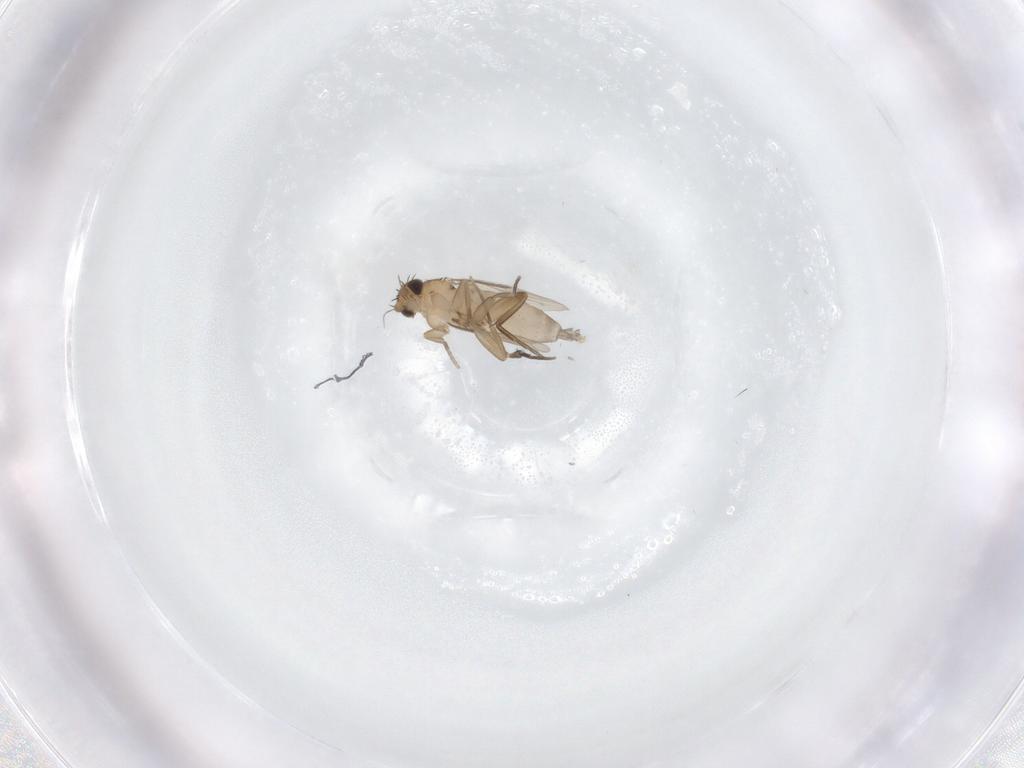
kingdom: Animalia
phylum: Arthropoda
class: Insecta
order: Diptera
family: Phoridae
